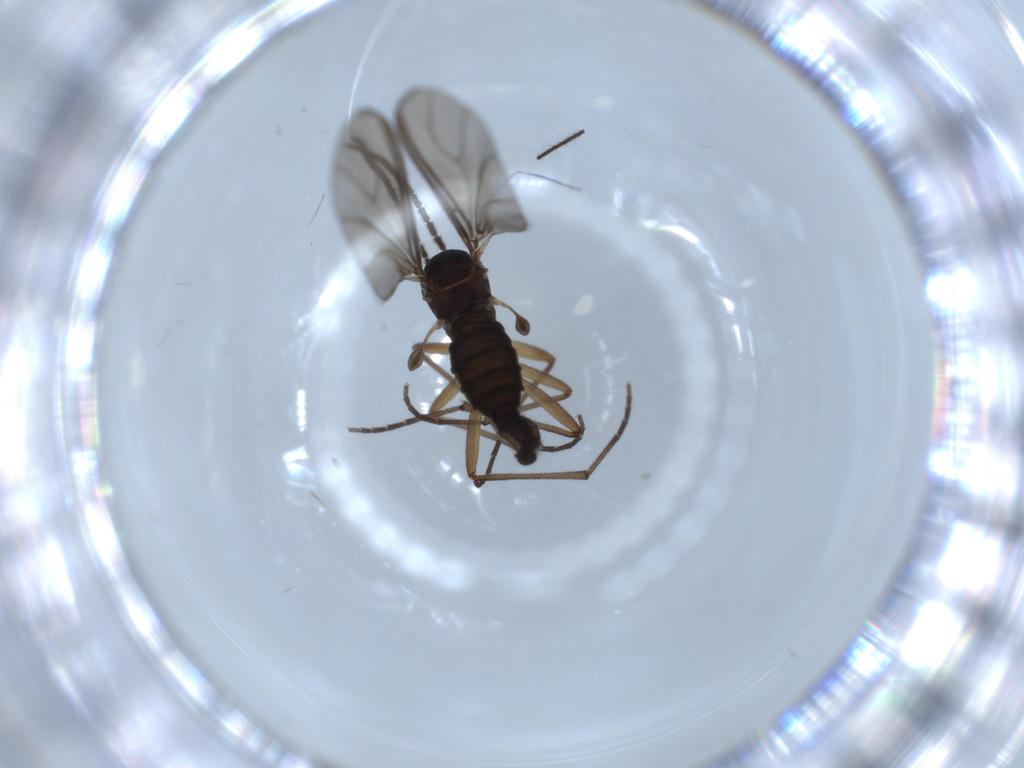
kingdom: Animalia
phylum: Arthropoda
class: Insecta
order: Diptera
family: Sciaridae
